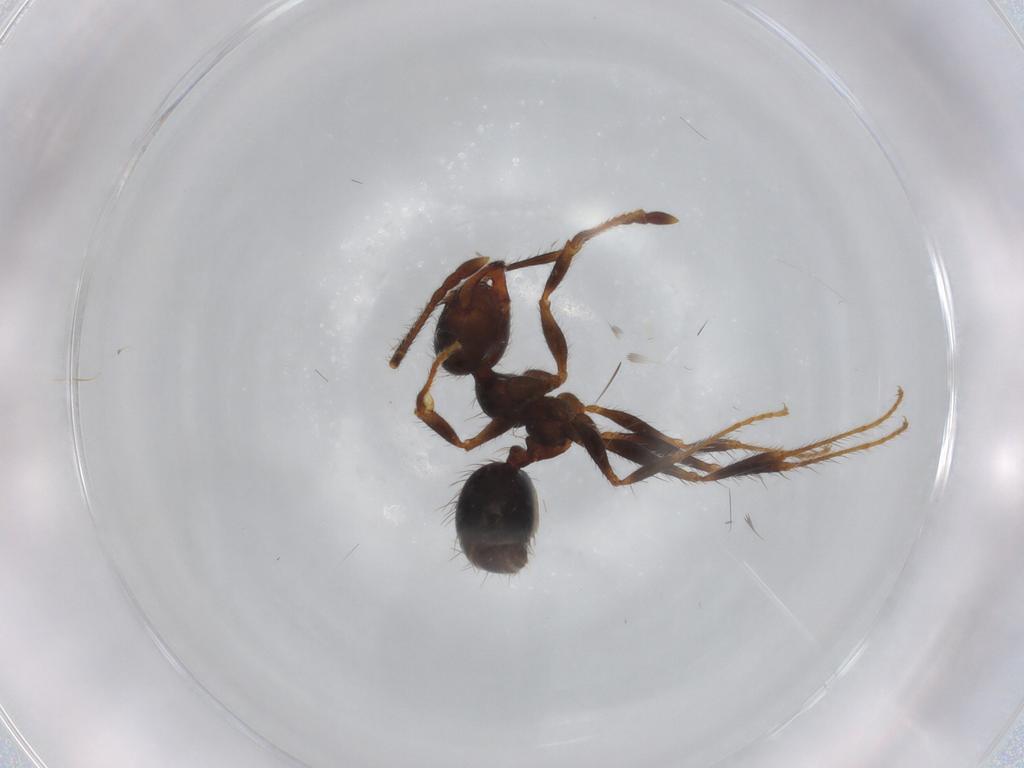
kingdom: Animalia
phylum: Arthropoda
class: Insecta
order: Hymenoptera
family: Formicidae
